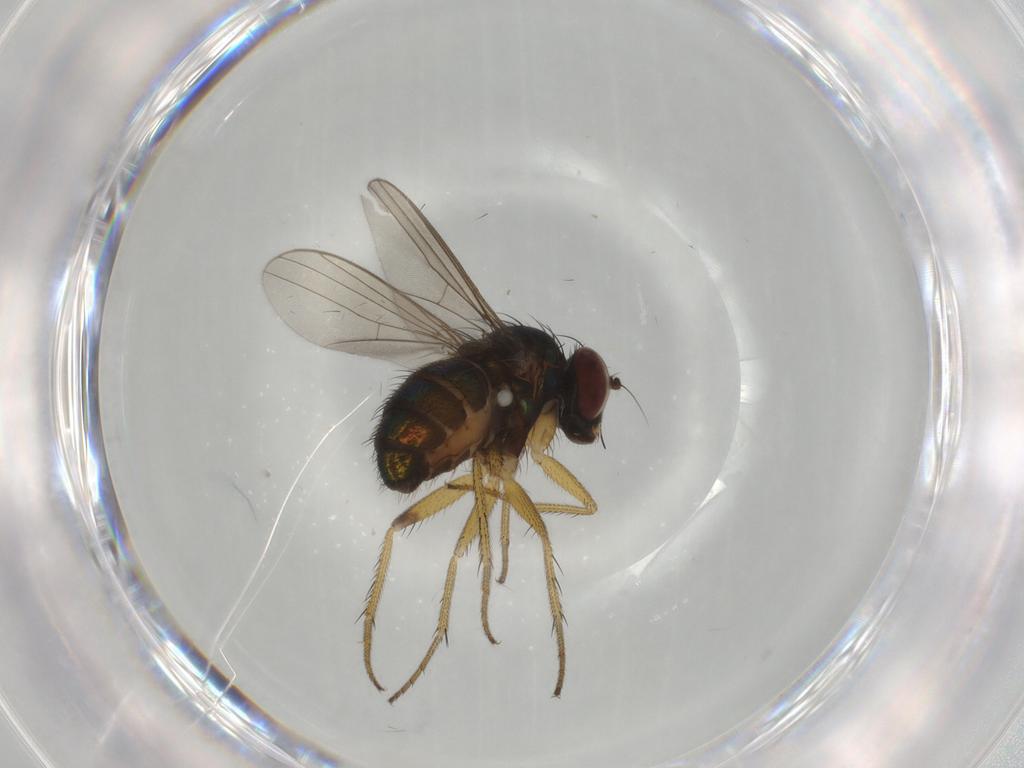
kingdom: Animalia
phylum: Arthropoda
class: Insecta
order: Diptera
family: Dolichopodidae
